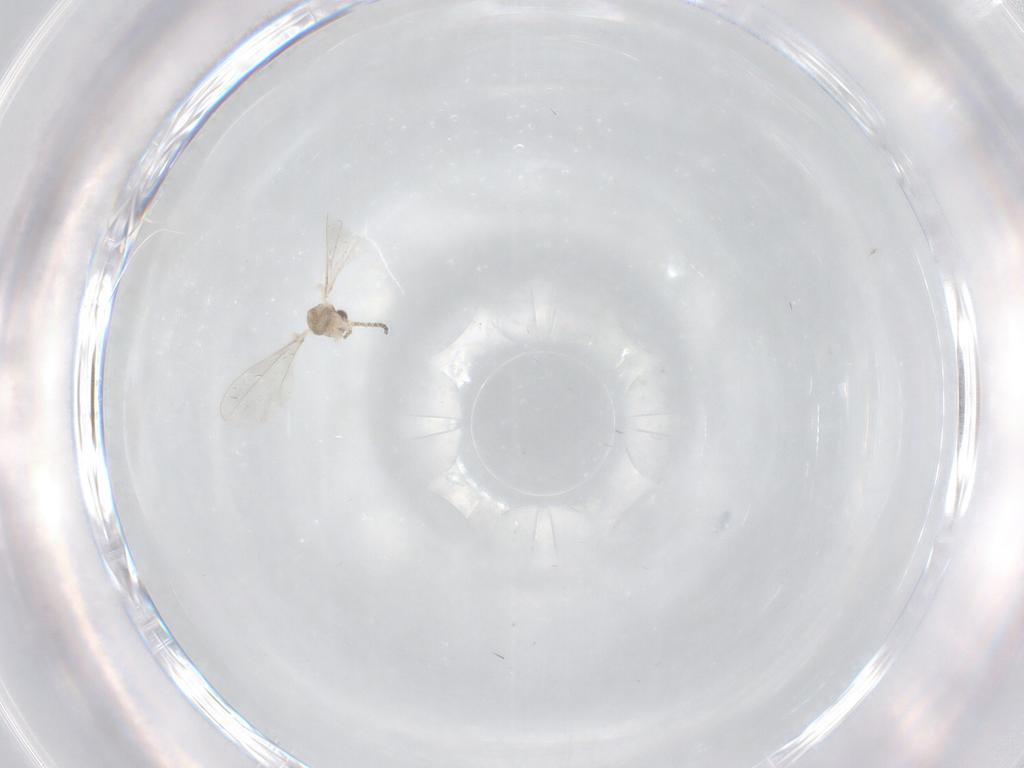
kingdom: Animalia
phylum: Arthropoda
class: Insecta
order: Diptera
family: Cecidomyiidae
